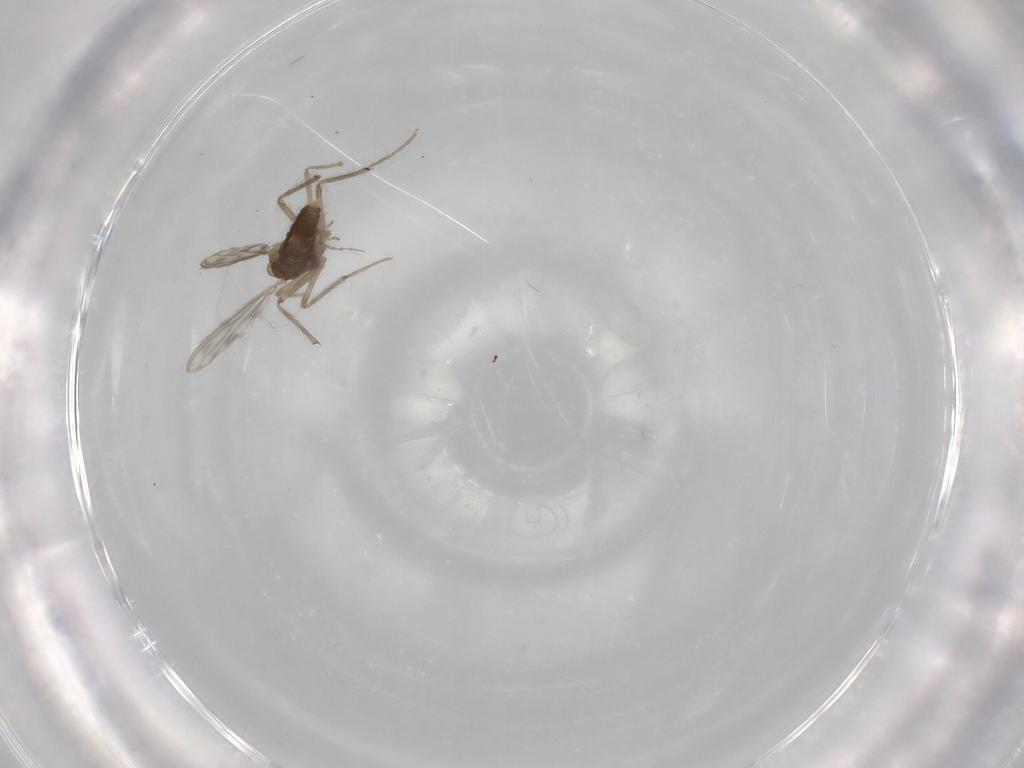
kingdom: Animalia
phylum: Arthropoda
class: Insecta
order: Diptera
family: Chironomidae
